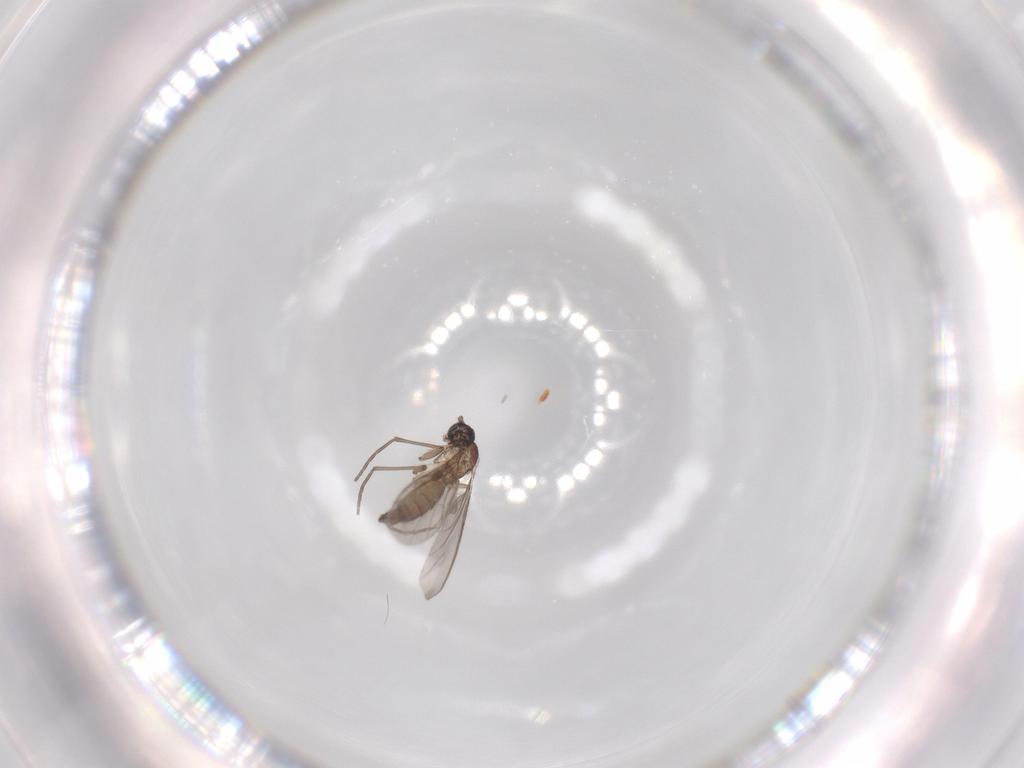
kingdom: Animalia
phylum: Arthropoda
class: Insecta
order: Diptera
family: Sciaridae
